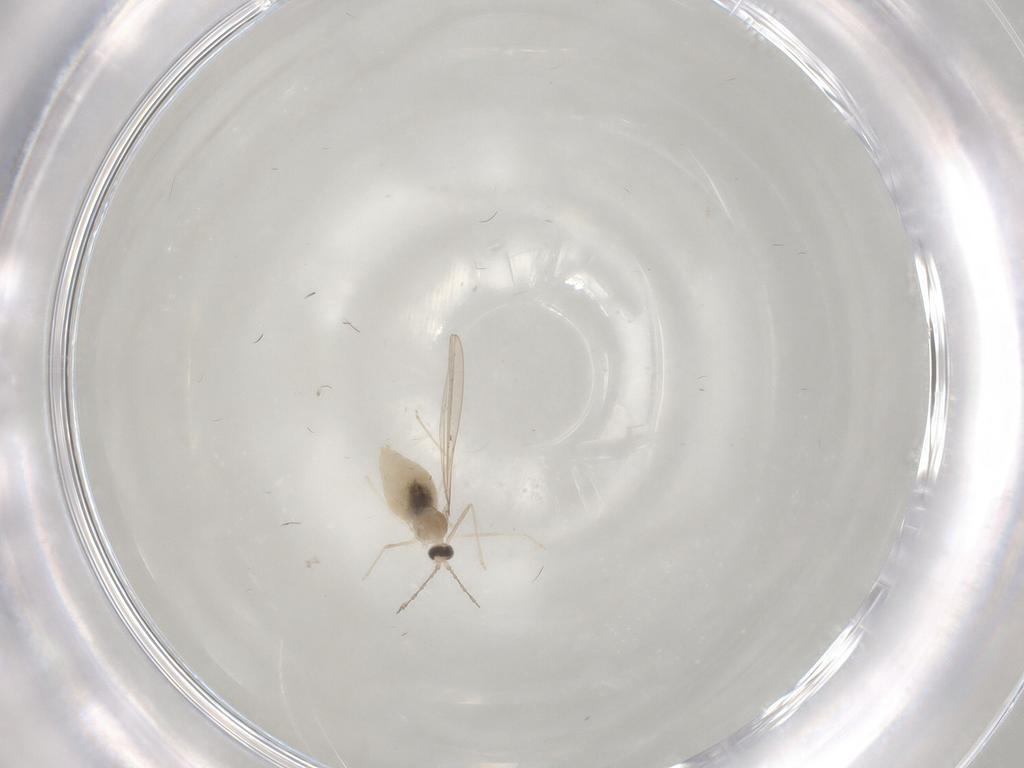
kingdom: Animalia
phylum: Arthropoda
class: Insecta
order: Diptera
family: Cecidomyiidae
